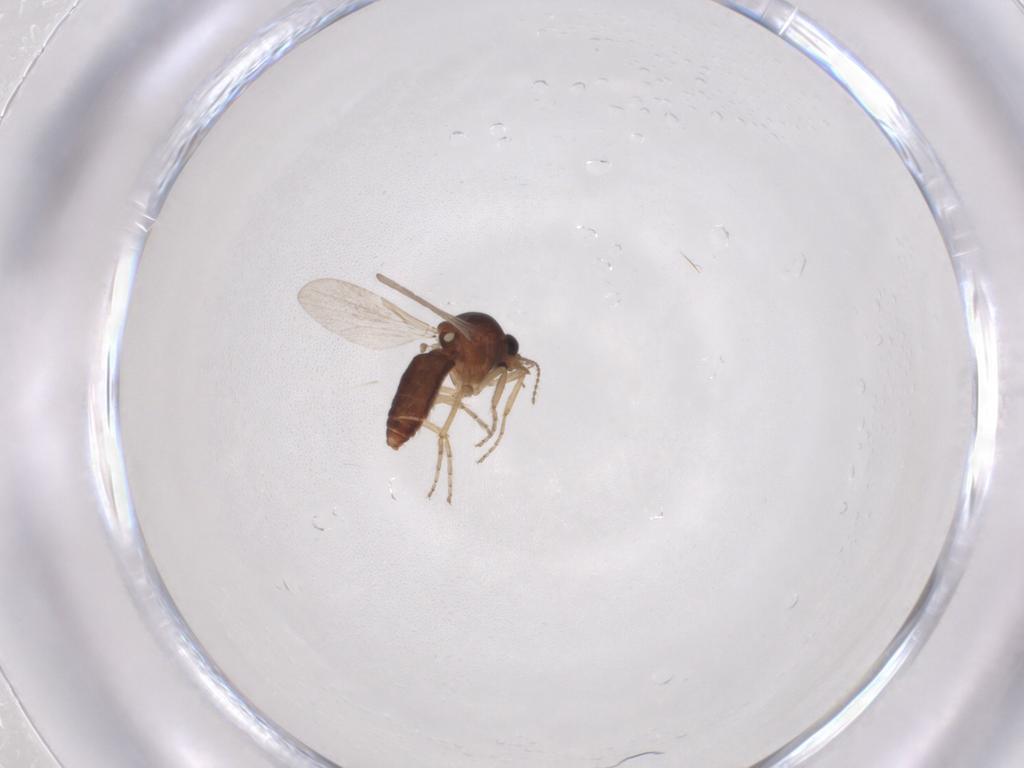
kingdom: Animalia
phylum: Arthropoda
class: Insecta
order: Diptera
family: Ceratopogonidae
